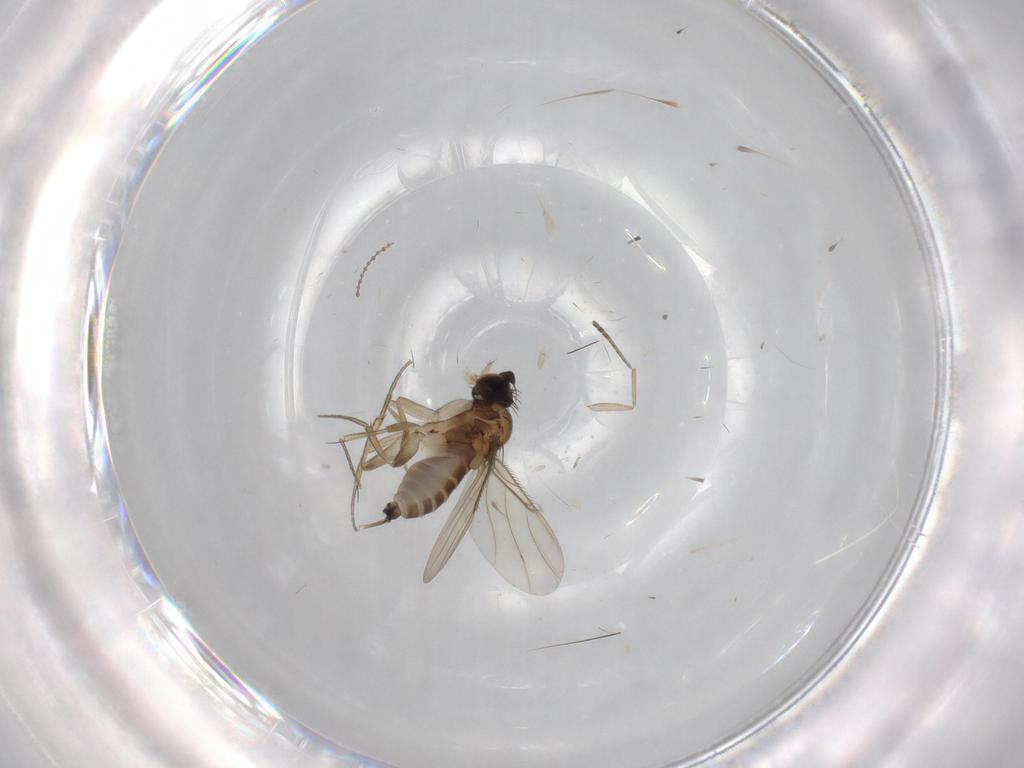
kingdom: Animalia
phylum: Arthropoda
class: Insecta
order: Diptera
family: Phoridae
